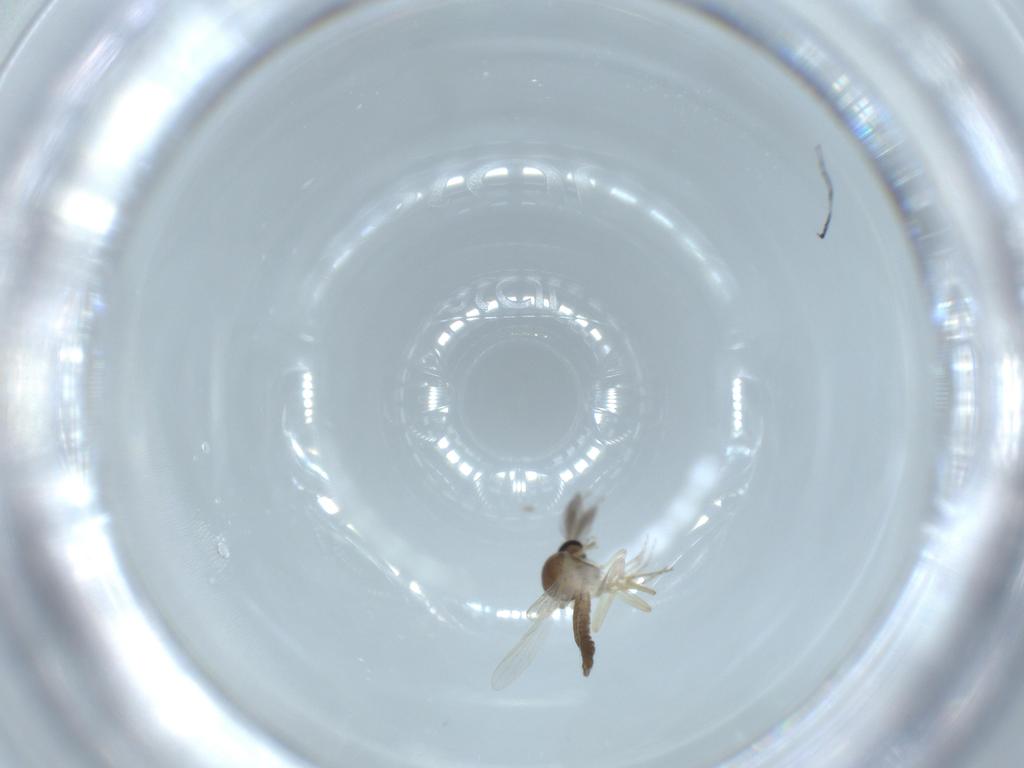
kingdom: Animalia
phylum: Arthropoda
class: Insecta
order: Diptera
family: Ceratopogonidae
